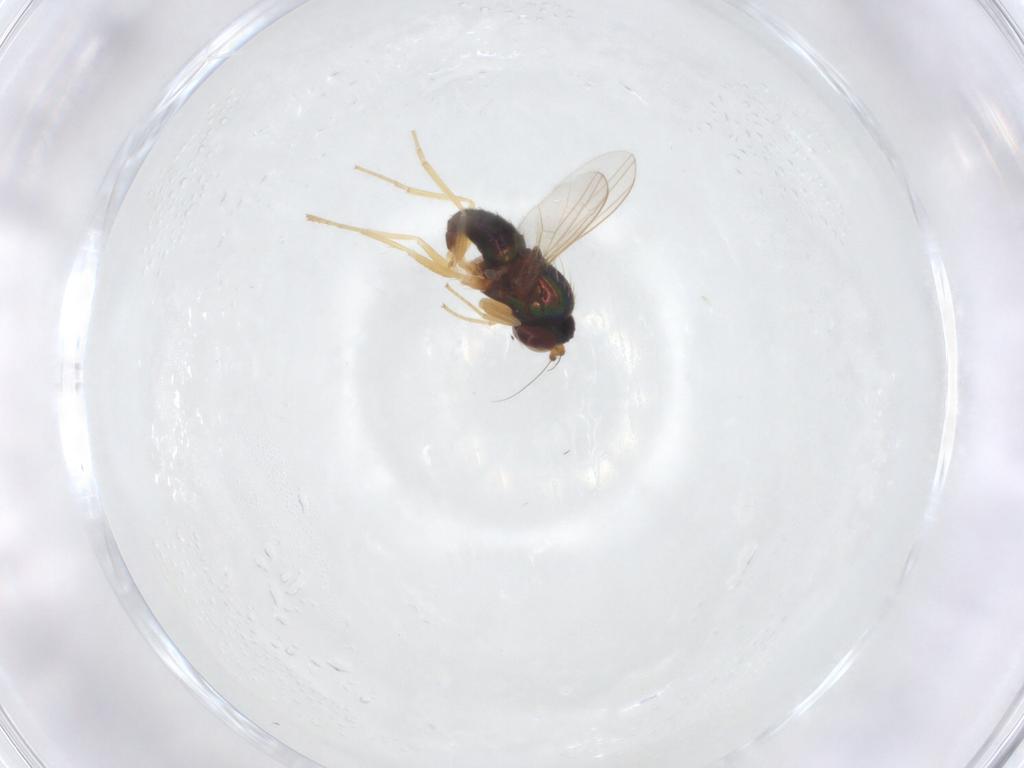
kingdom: Animalia
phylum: Arthropoda
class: Insecta
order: Diptera
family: Dolichopodidae
